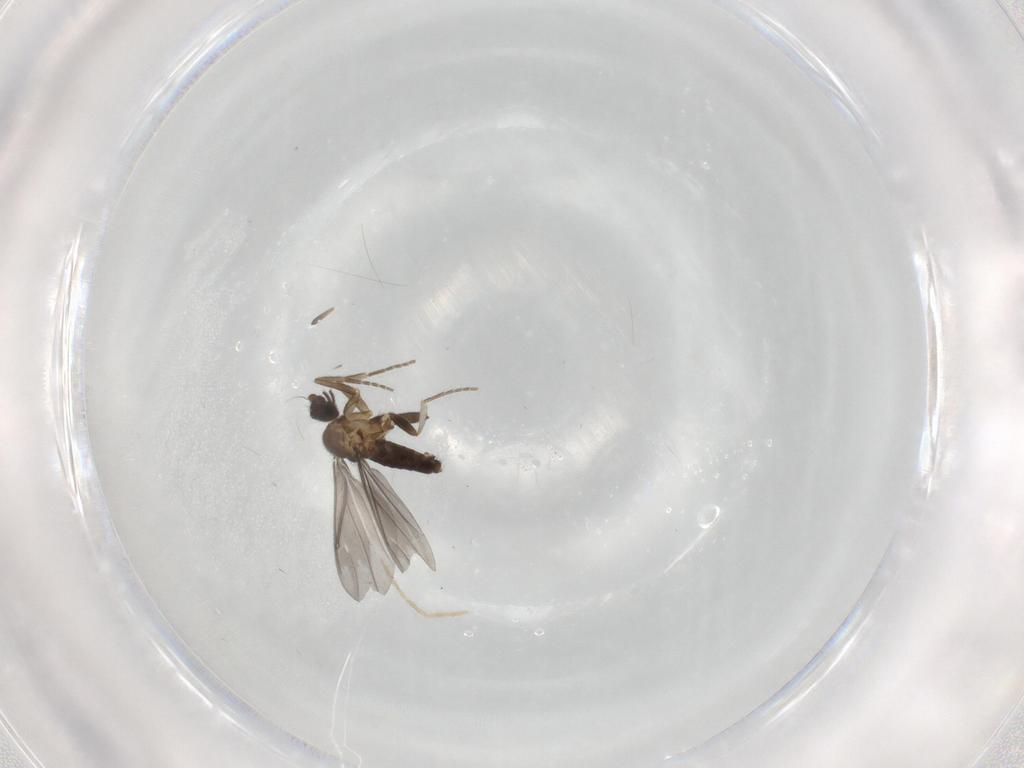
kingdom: Animalia
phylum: Arthropoda
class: Insecta
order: Diptera
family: Phoridae
